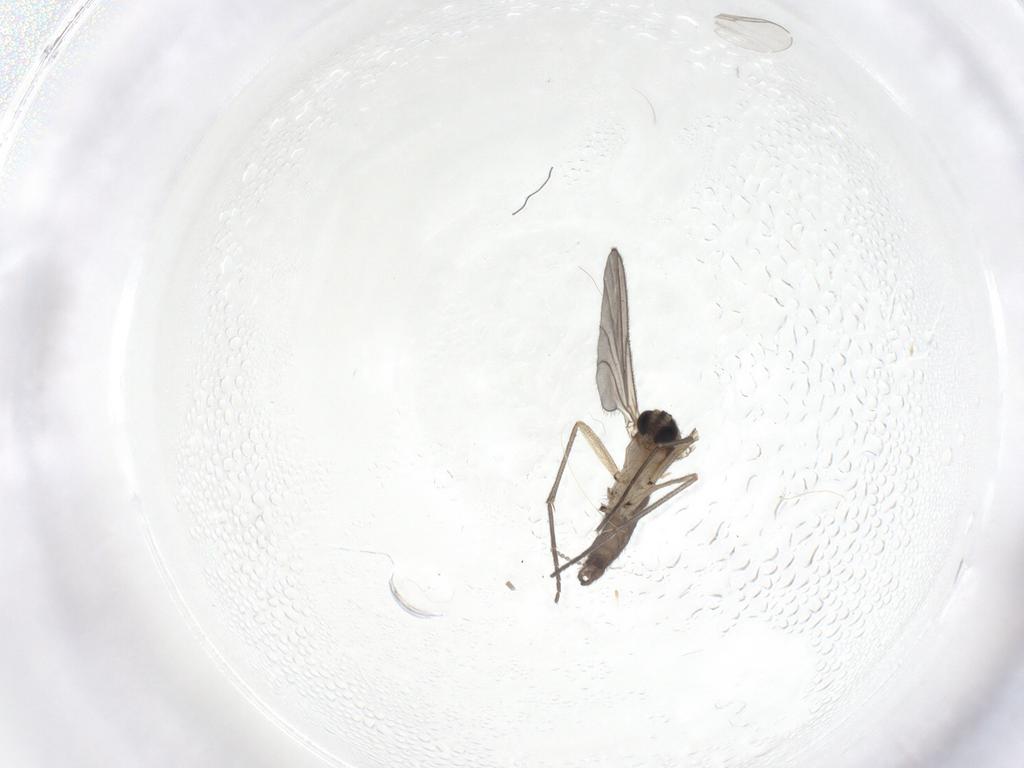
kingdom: Animalia
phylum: Arthropoda
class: Insecta
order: Diptera
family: Sciaridae
